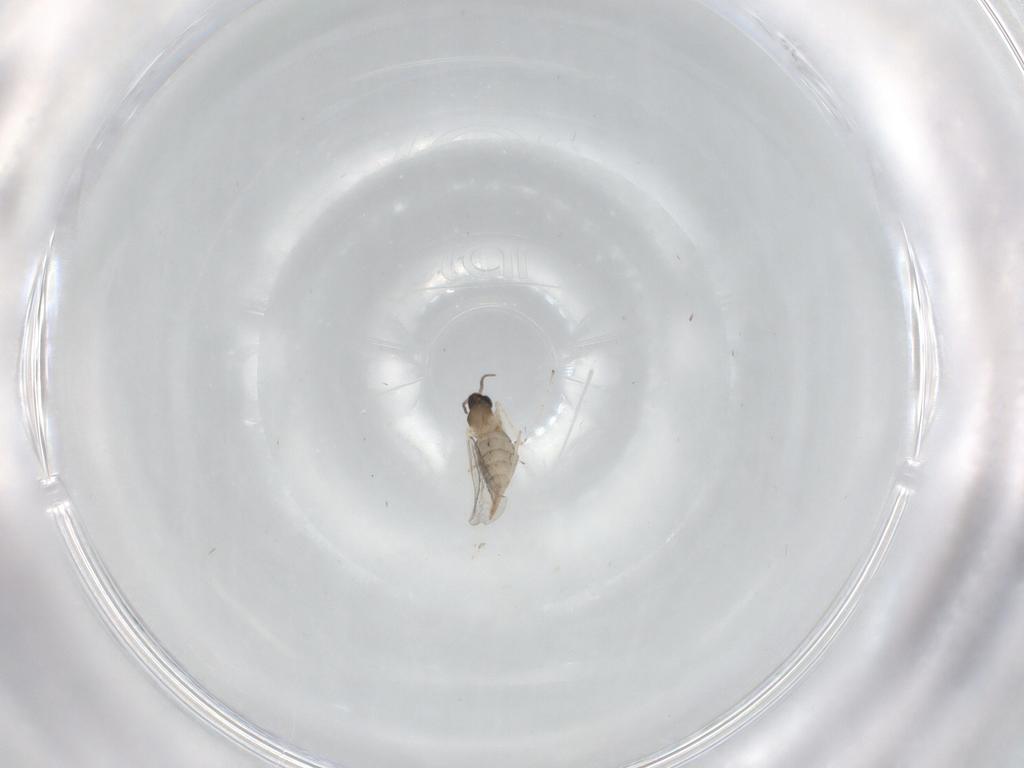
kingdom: Animalia
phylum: Arthropoda
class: Insecta
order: Diptera
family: Cecidomyiidae
